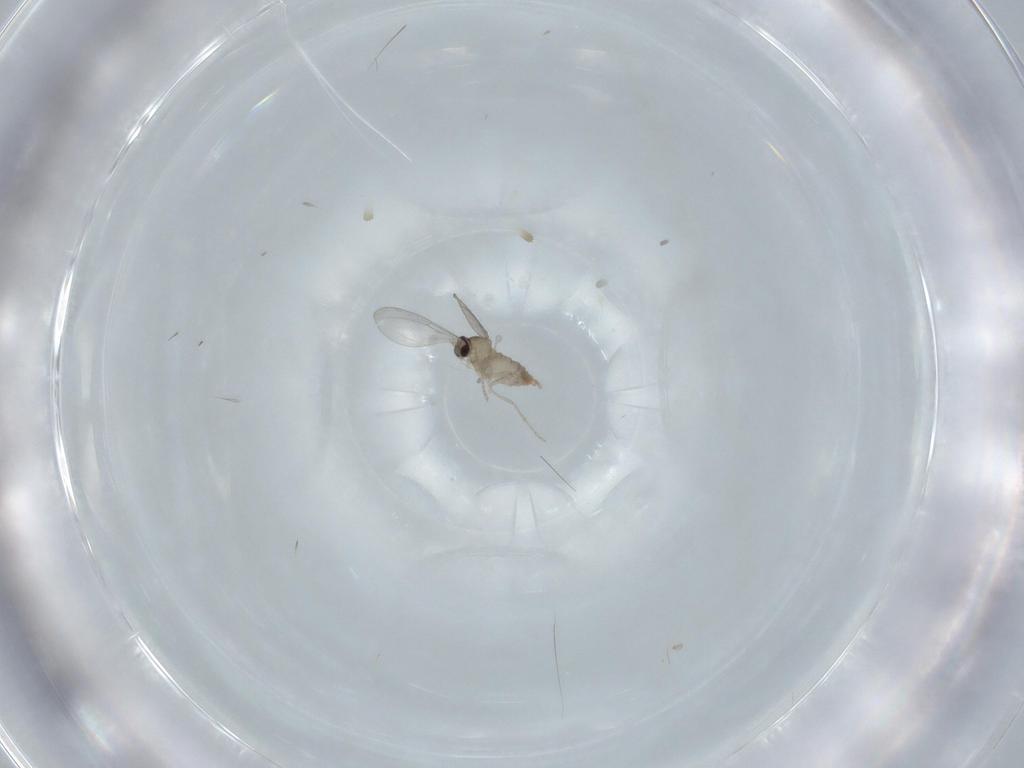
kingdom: Animalia
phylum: Arthropoda
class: Insecta
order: Diptera
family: Cecidomyiidae
